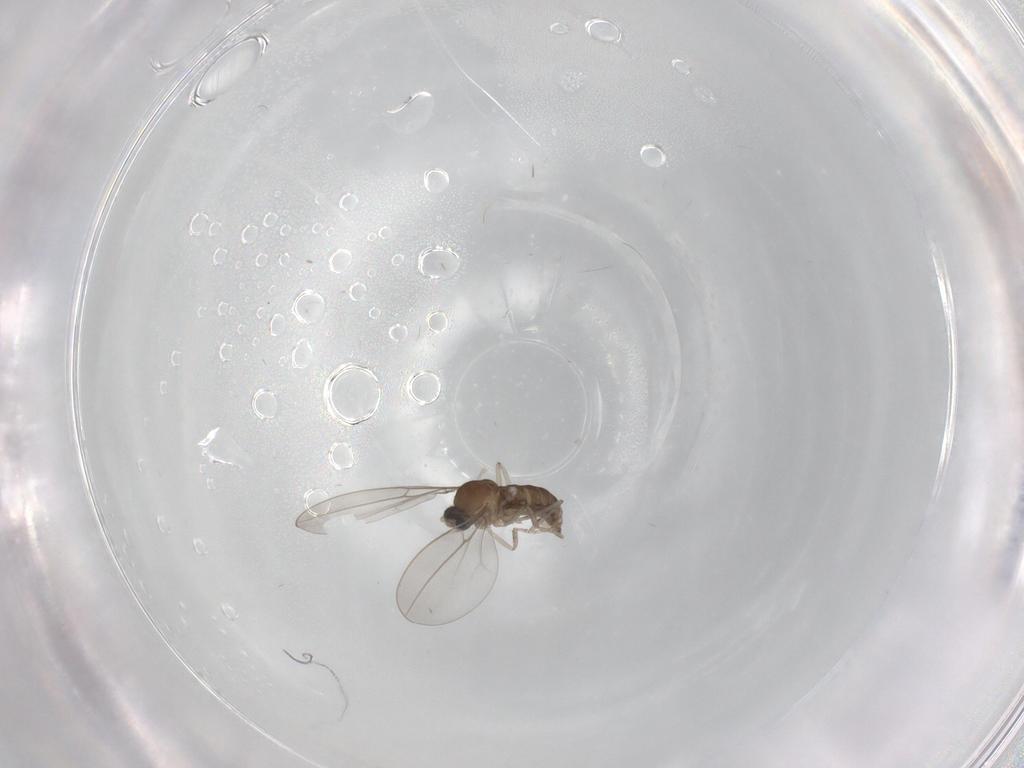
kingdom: Animalia
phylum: Arthropoda
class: Insecta
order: Diptera
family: Cecidomyiidae
